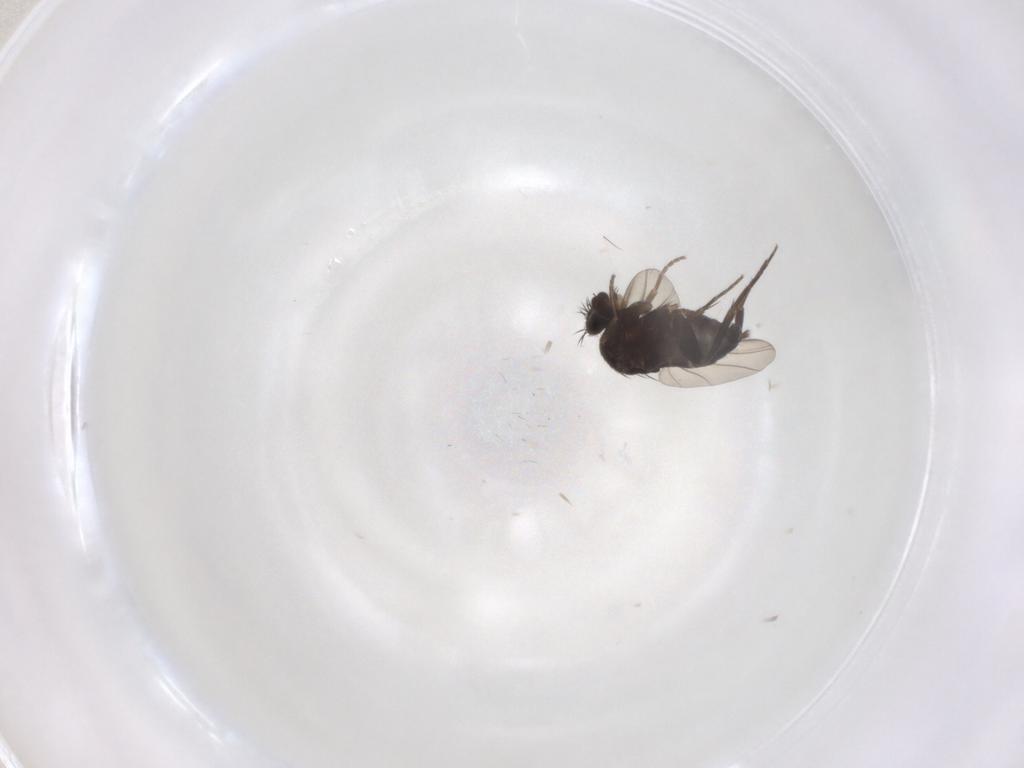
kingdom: Animalia
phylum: Arthropoda
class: Insecta
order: Diptera
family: Phoridae
